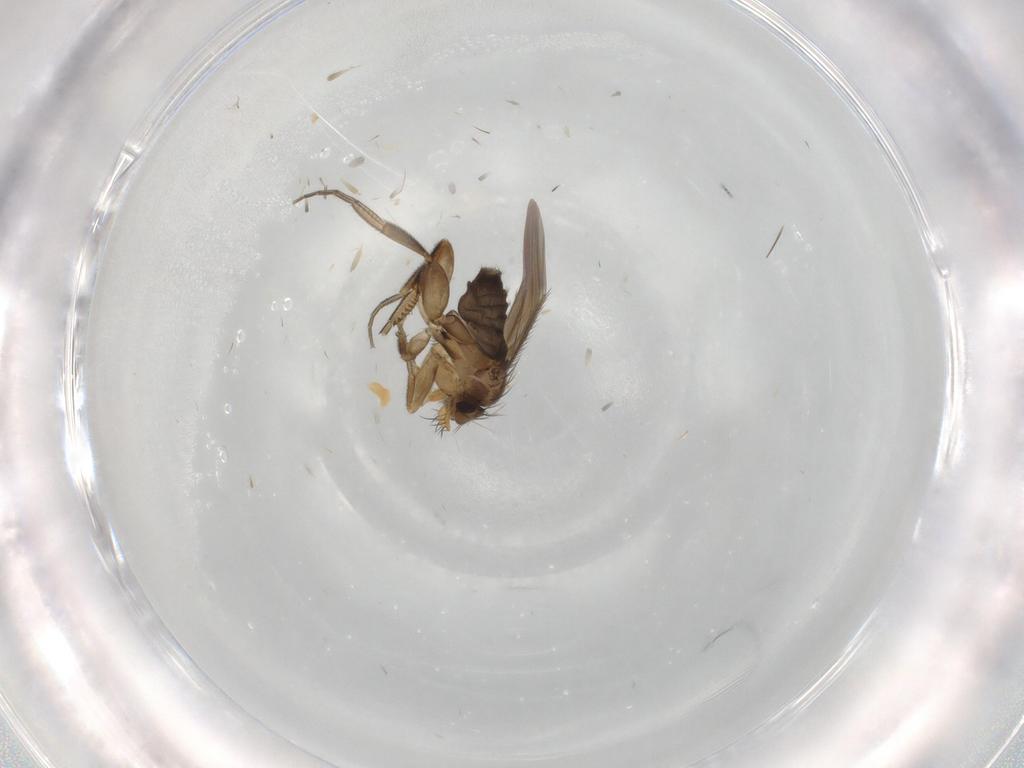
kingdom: Animalia
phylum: Arthropoda
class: Insecta
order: Diptera
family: Phoridae
